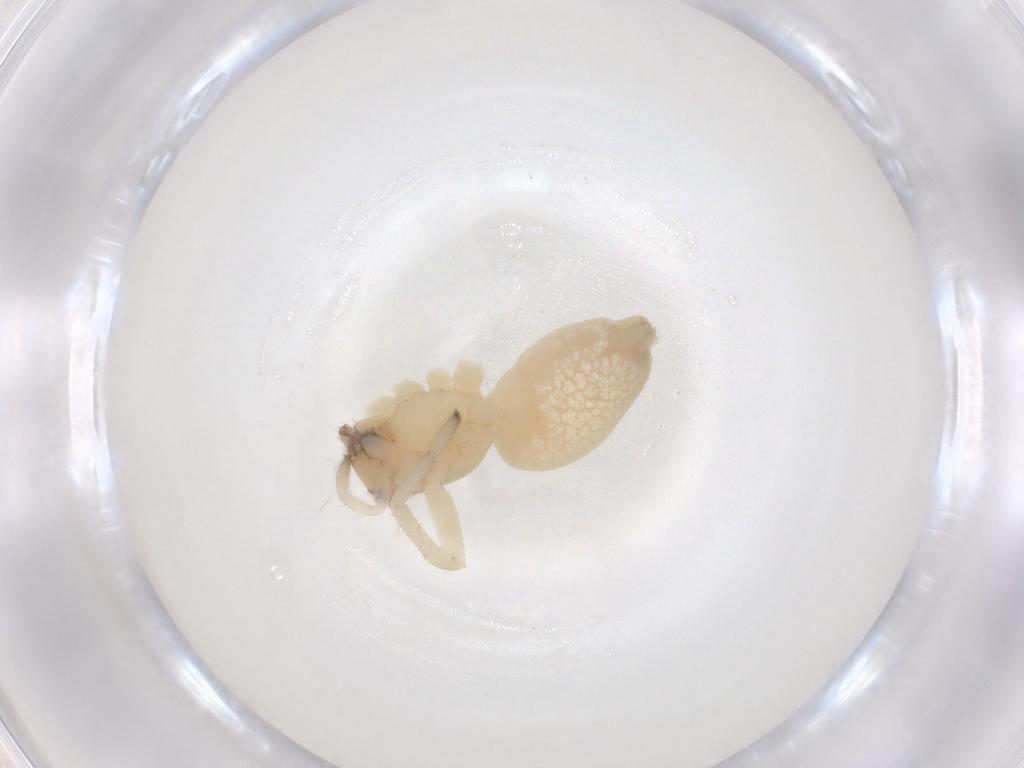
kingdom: Animalia
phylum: Arthropoda
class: Arachnida
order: Araneae
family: Cheiracanthiidae
